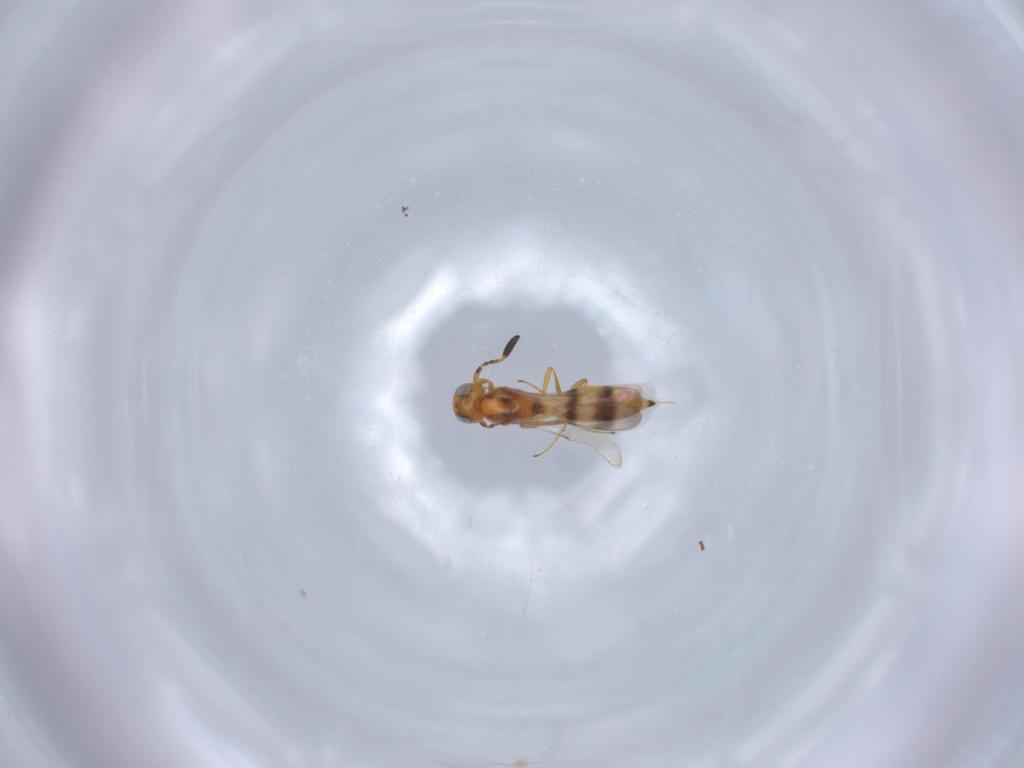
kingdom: Animalia
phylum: Arthropoda
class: Insecta
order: Hymenoptera
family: Scelionidae
